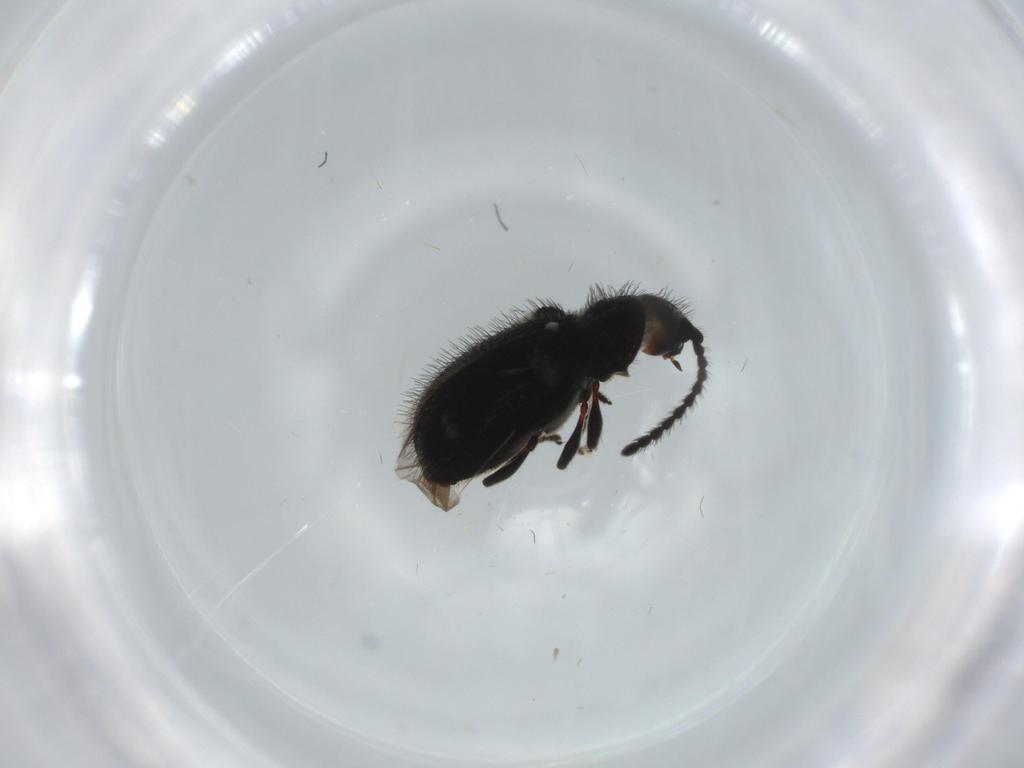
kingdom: Animalia
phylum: Arthropoda
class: Insecta
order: Coleoptera
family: Ptinidae
